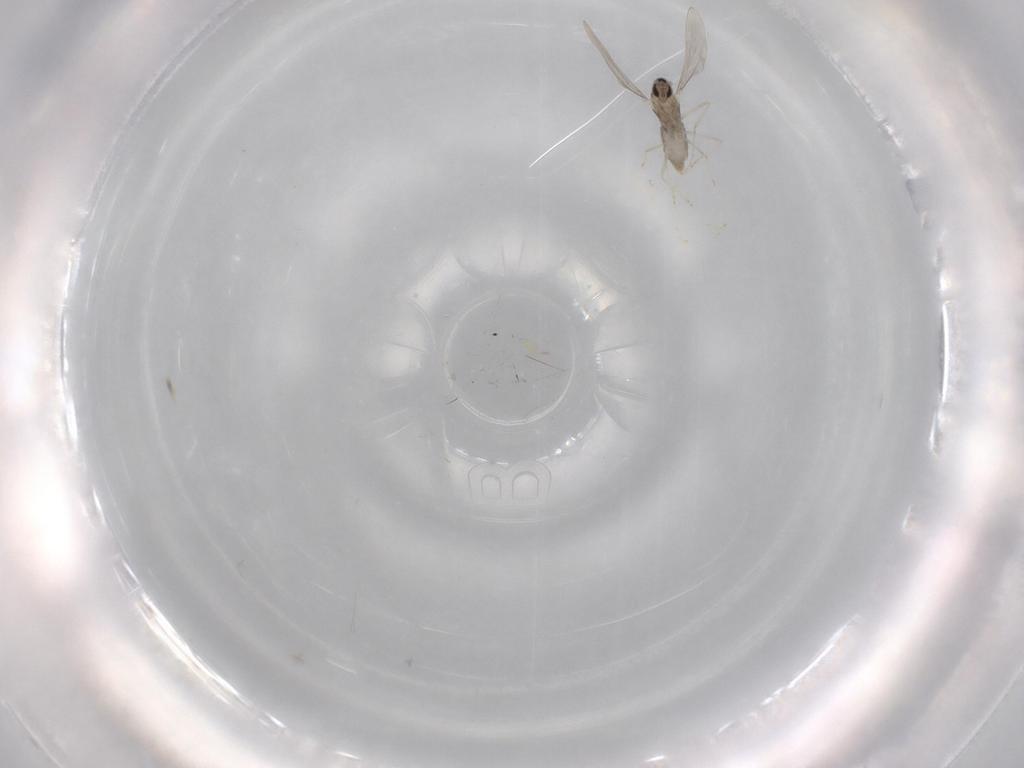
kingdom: Animalia
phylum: Arthropoda
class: Insecta
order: Diptera
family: Cecidomyiidae
